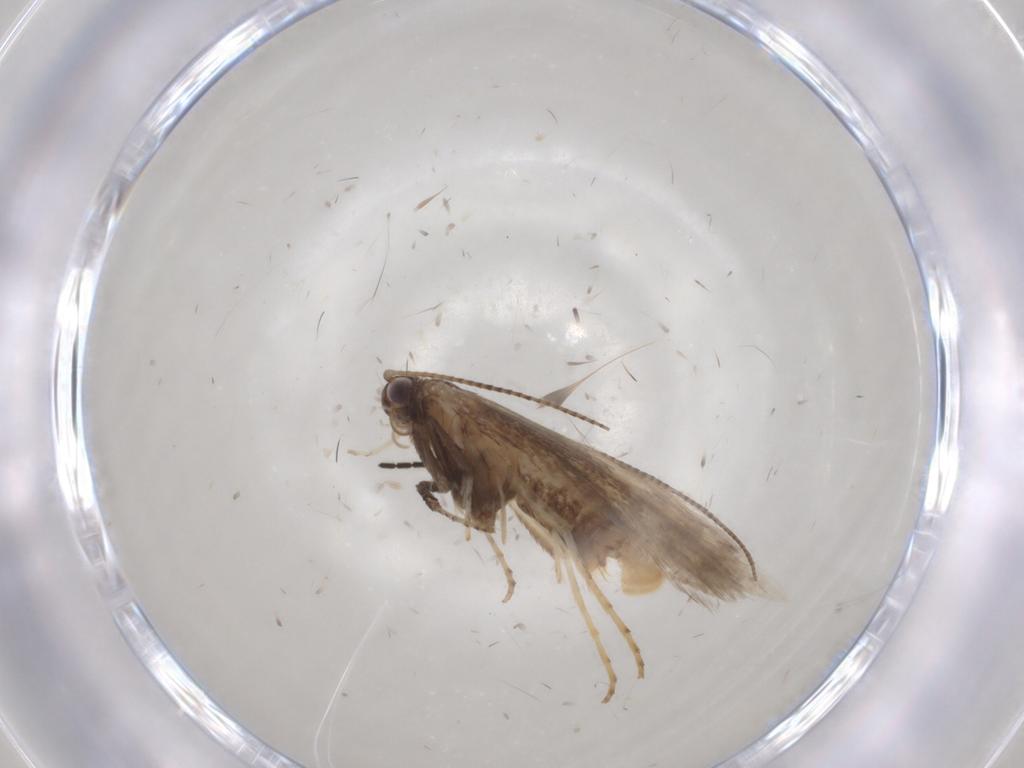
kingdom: Animalia
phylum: Arthropoda
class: Insecta
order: Lepidoptera
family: Gracillariidae
